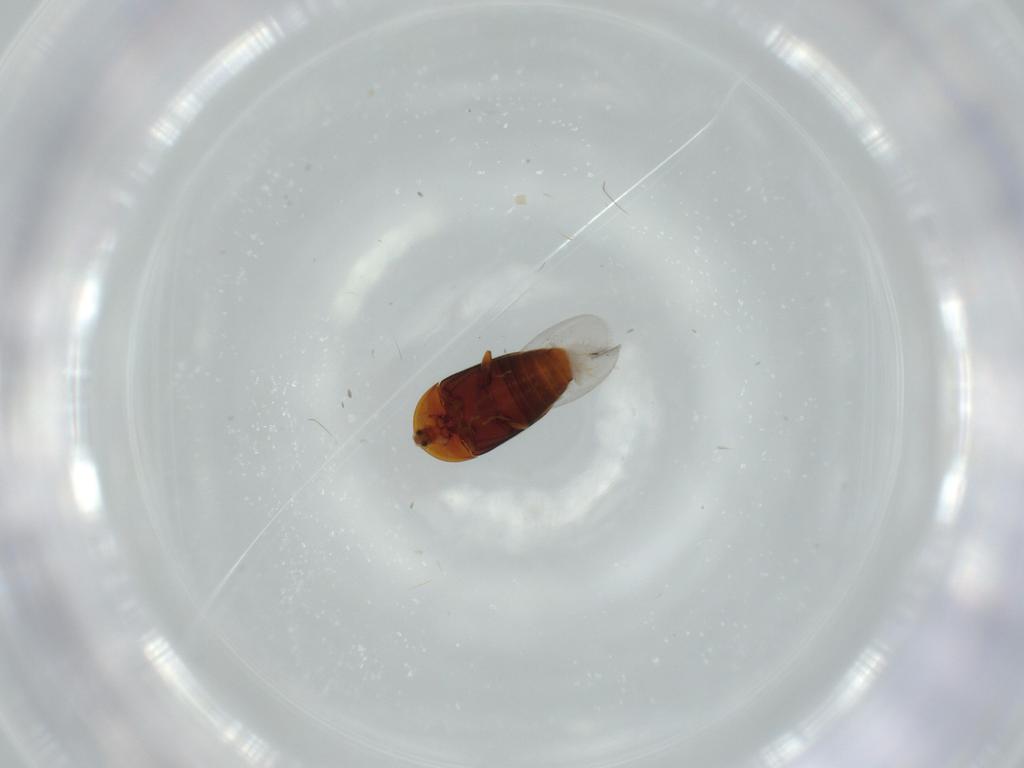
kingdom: Animalia
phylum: Arthropoda
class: Insecta
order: Coleoptera
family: Corylophidae
